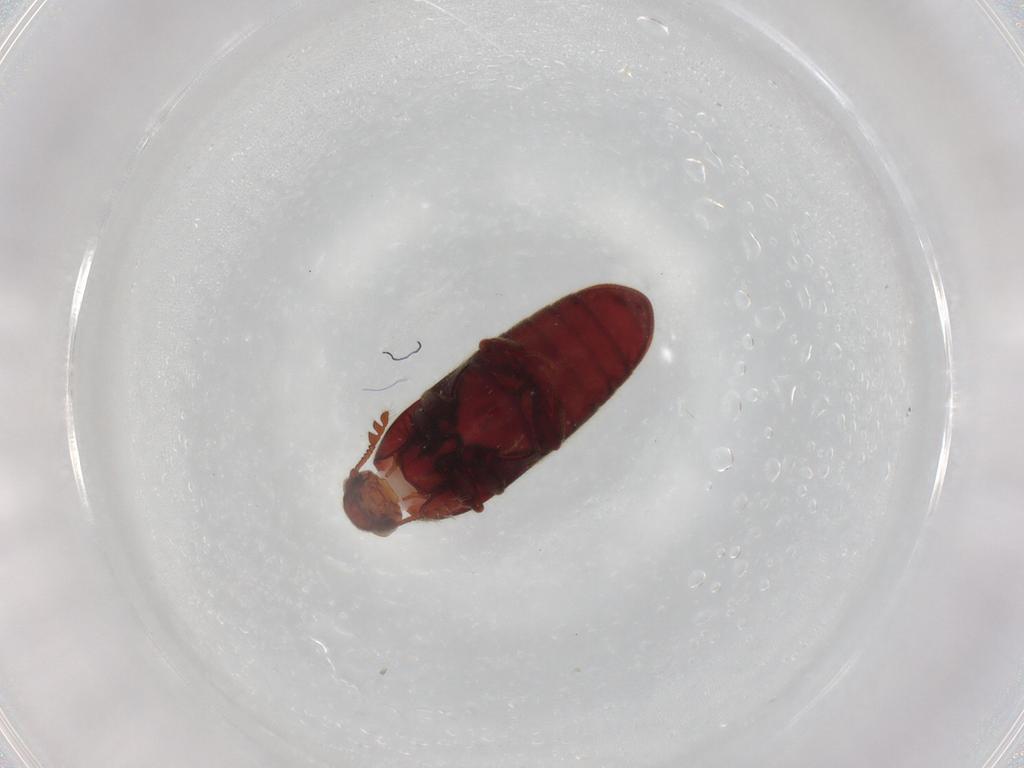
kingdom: Animalia
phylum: Arthropoda
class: Insecta
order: Coleoptera
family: Throscidae
